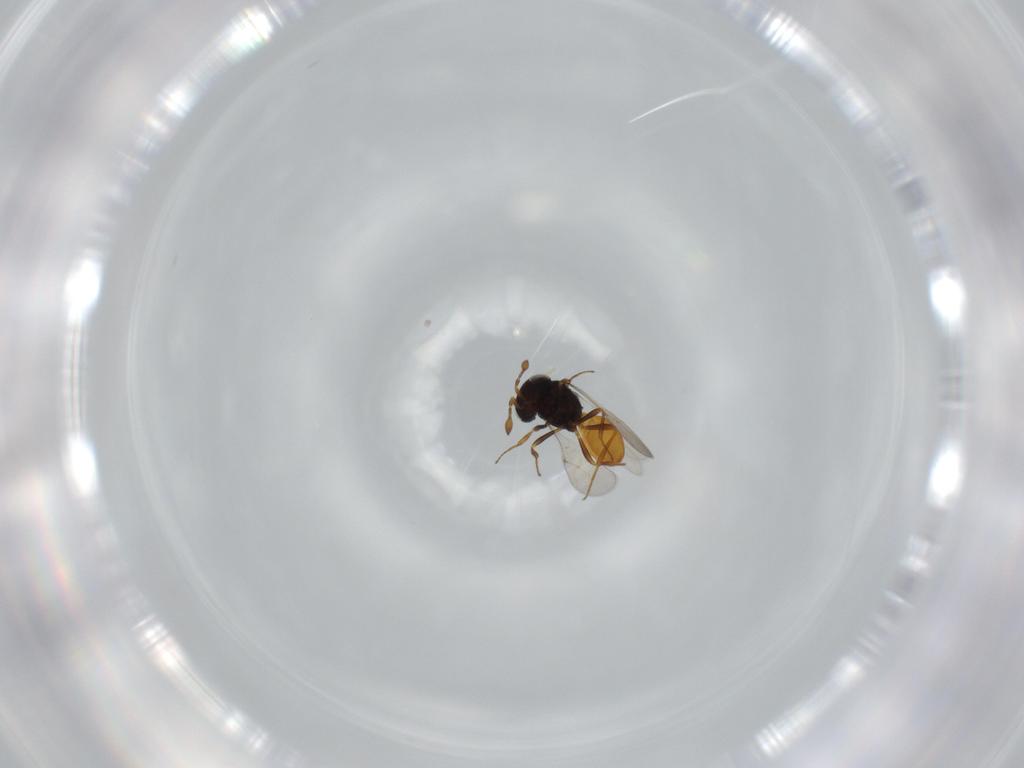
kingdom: Animalia
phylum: Arthropoda
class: Insecta
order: Hymenoptera
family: Scelionidae
